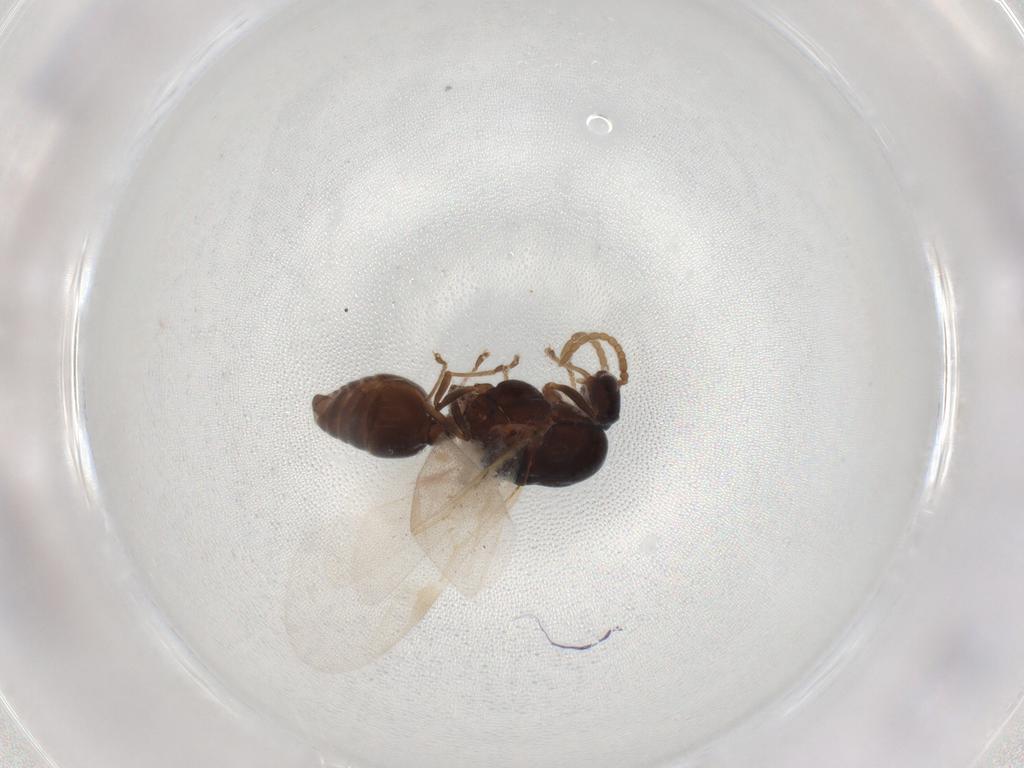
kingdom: Animalia
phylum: Arthropoda
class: Insecta
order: Hymenoptera
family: Formicidae
